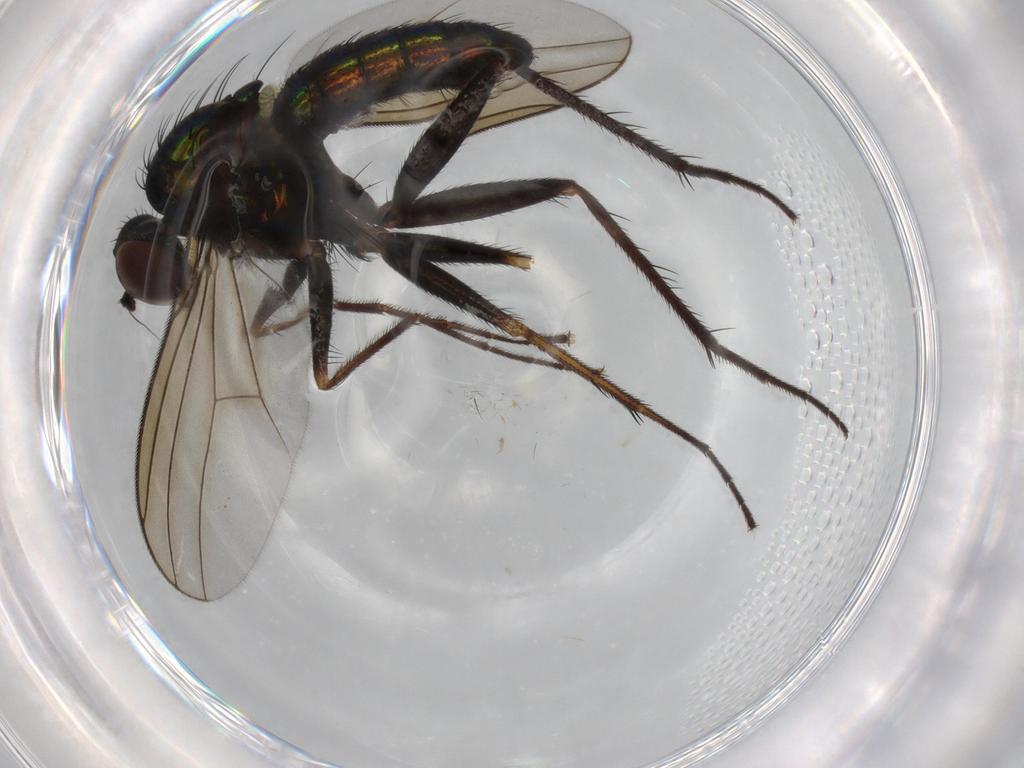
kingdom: Animalia
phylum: Arthropoda
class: Insecta
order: Diptera
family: Dolichopodidae
